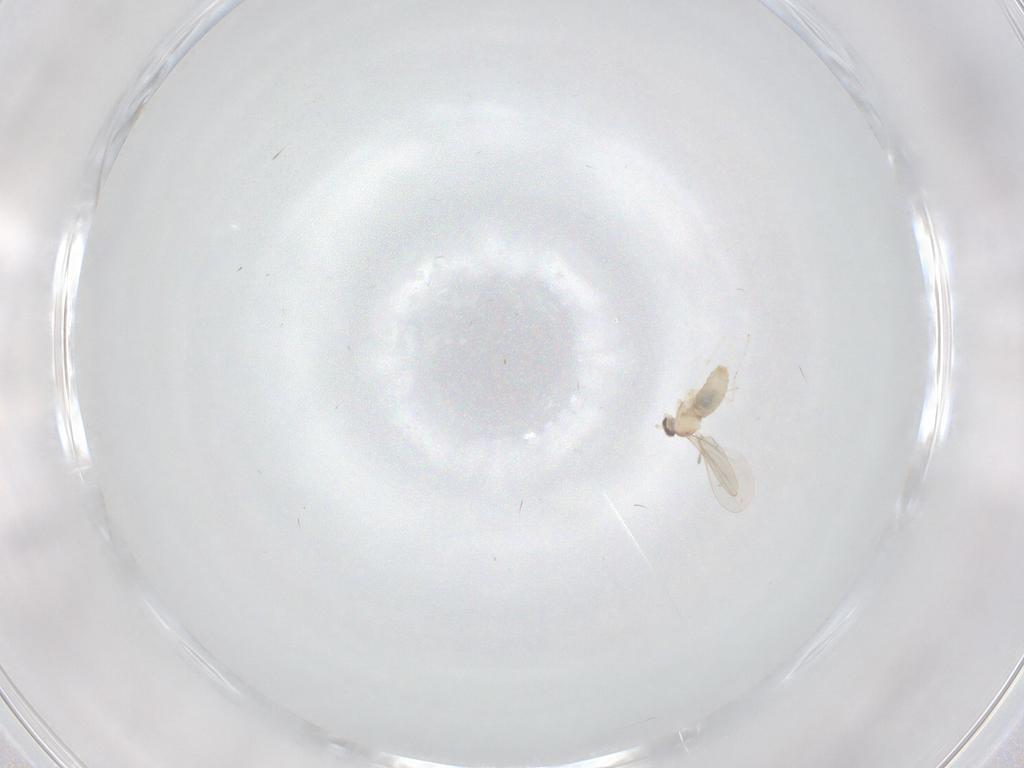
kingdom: Animalia
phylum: Arthropoda
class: Insecta
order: Diptera
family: Cecidomyiidae
